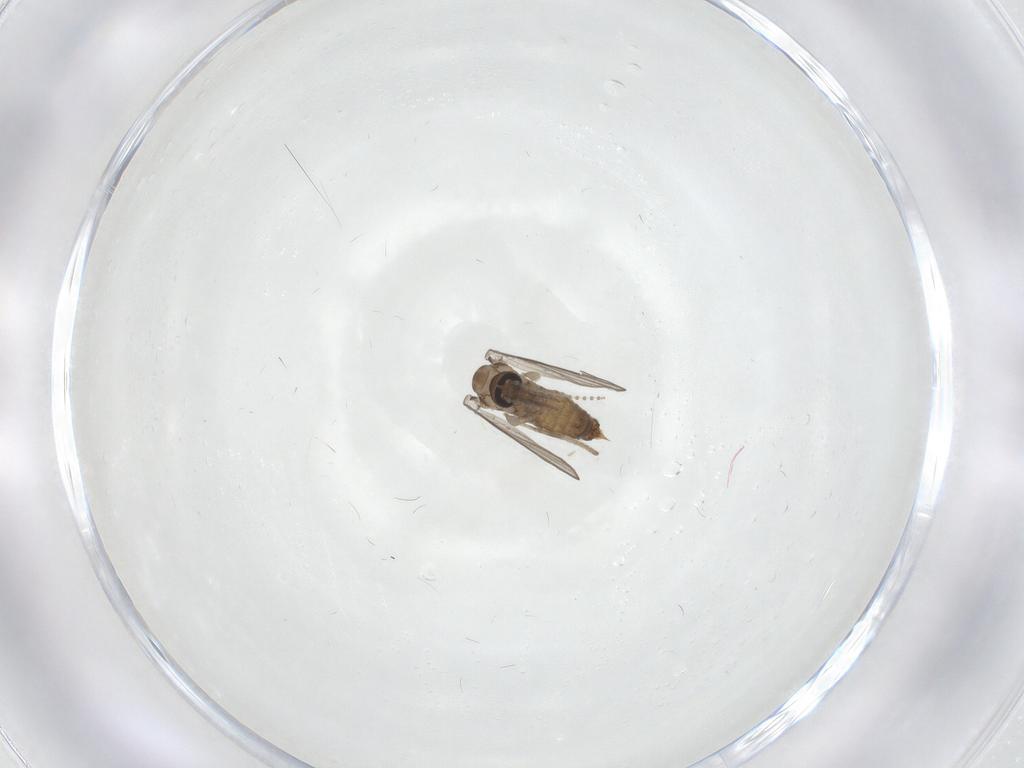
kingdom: Animalia
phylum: Arthropoda
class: Insecta
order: Diptera
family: Psychodidae
